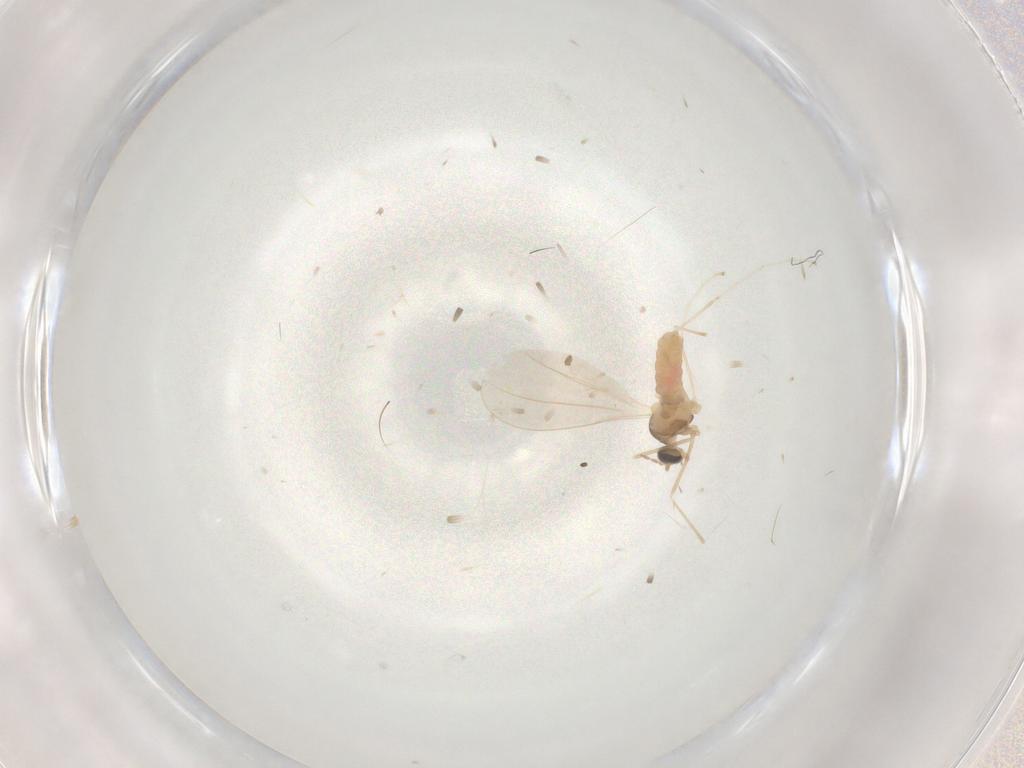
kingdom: Animalia
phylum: Arthropoda
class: Insecta
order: Diptera
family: Cecidomyiidae
